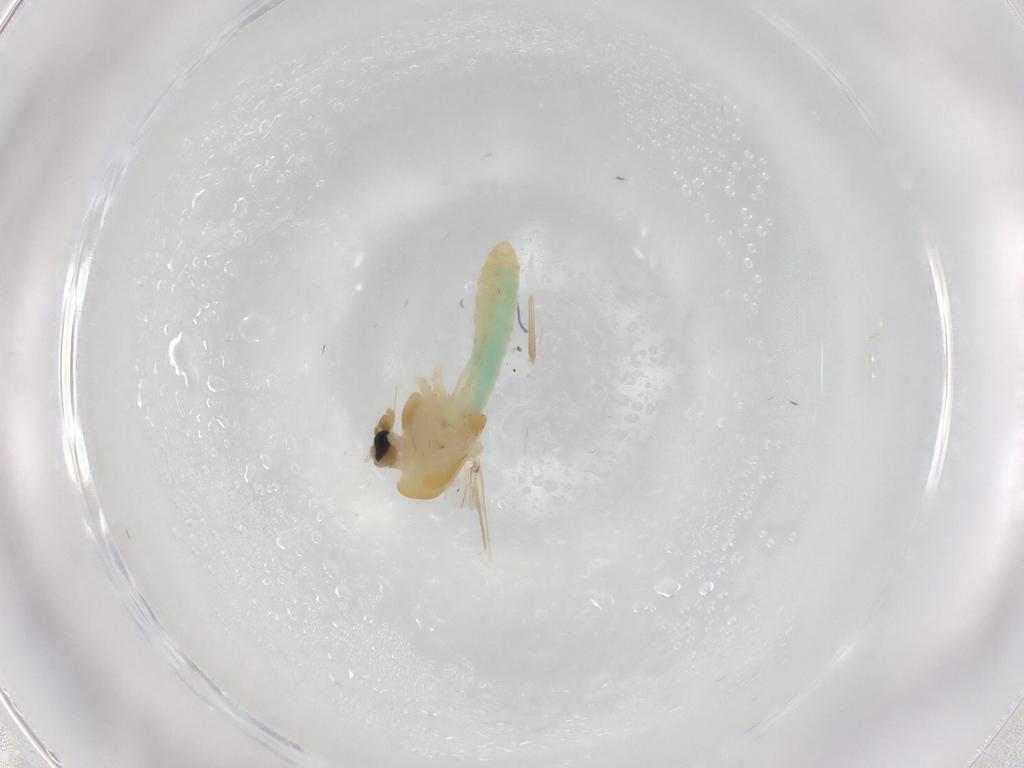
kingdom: Animalia
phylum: Arthropoda
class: Insecta
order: Diptera
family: Chironomidae
